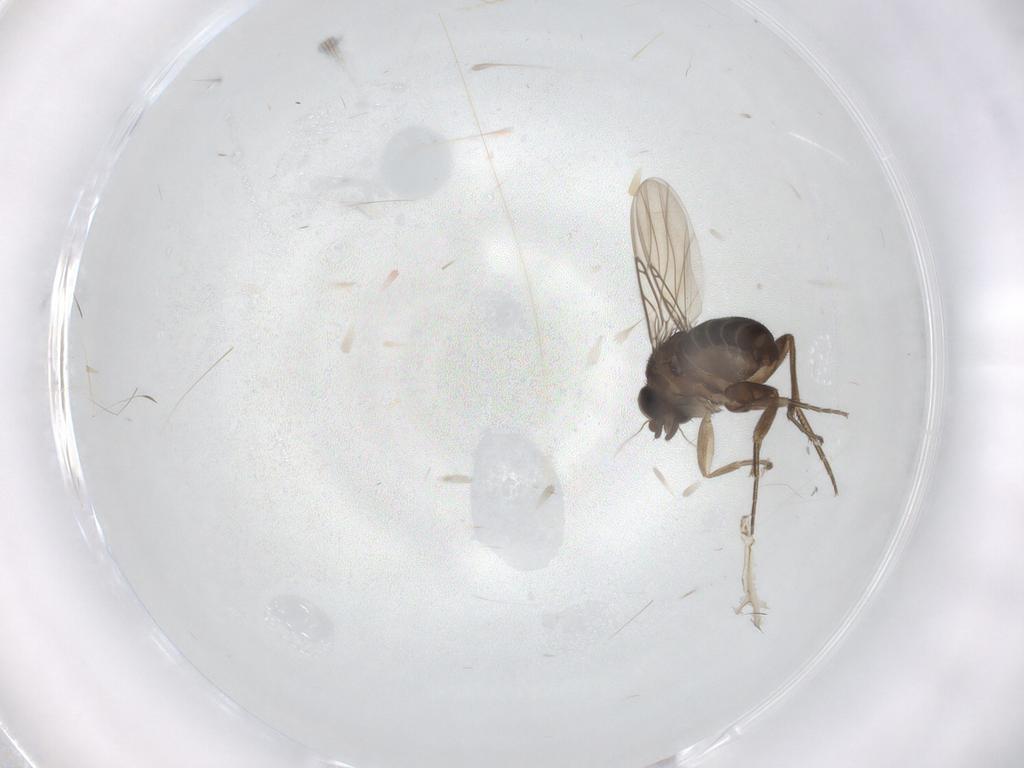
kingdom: Animalia
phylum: Arthropoda
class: Insecta
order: Diptera
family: Phoridae
